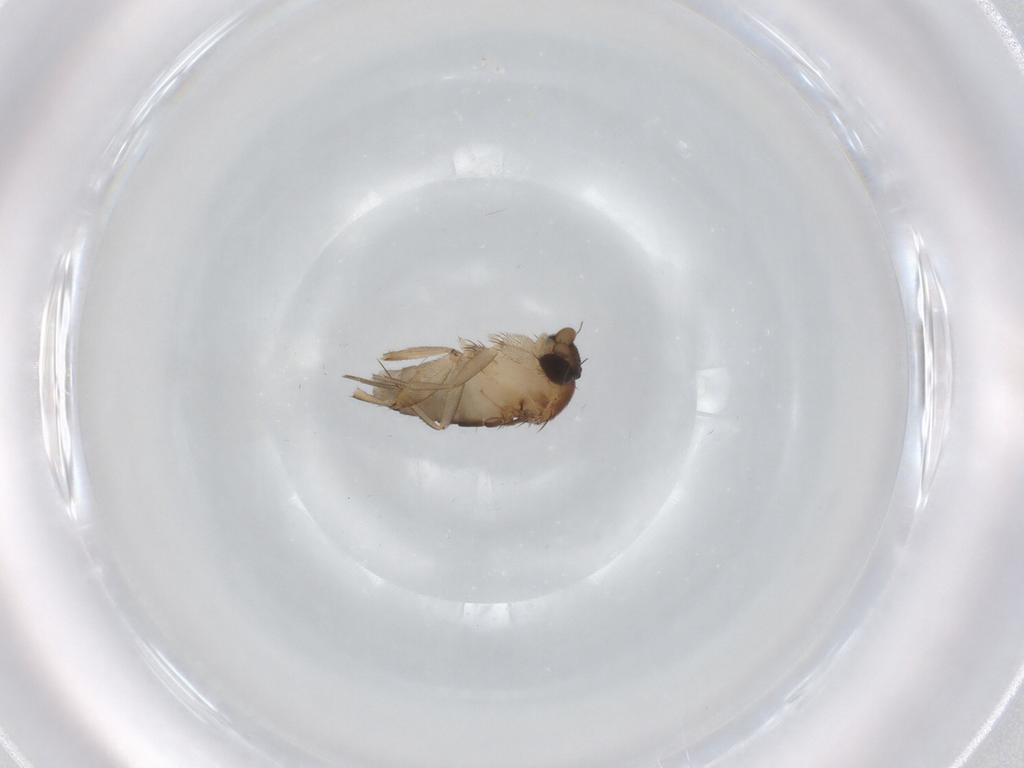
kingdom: Animalia
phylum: Arthropoda
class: Insecta
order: Diptera
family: Phoridae
